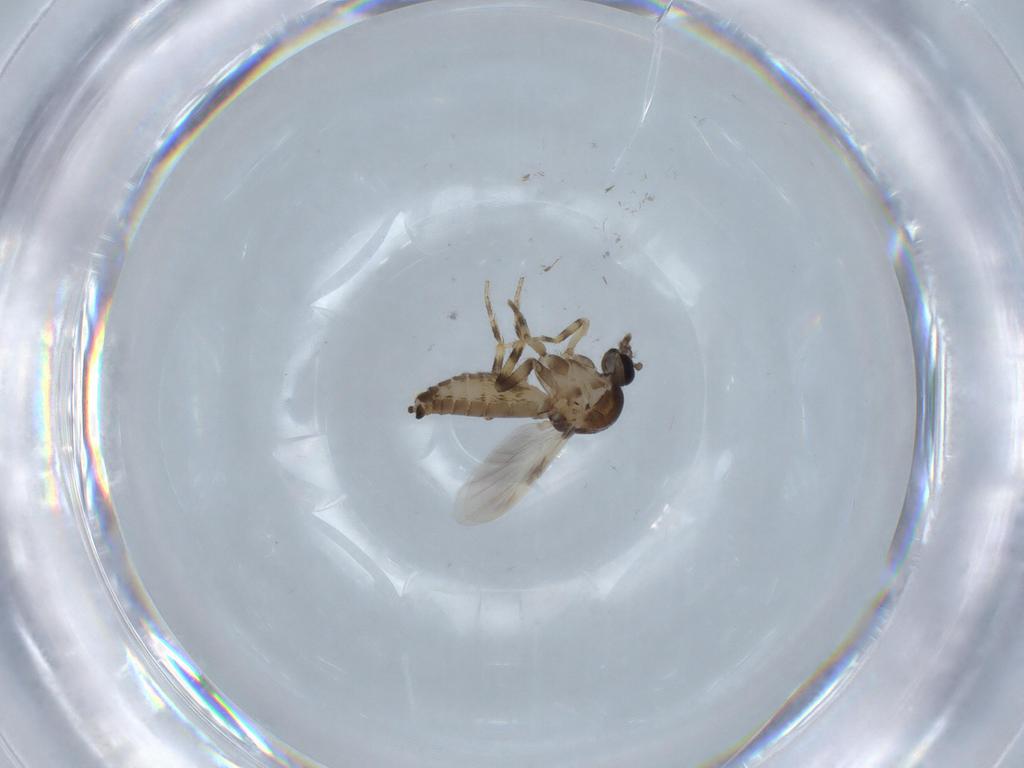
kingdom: Animalia
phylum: Arthropoda
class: Insecta
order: Diptera
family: Ceratopogonidae
